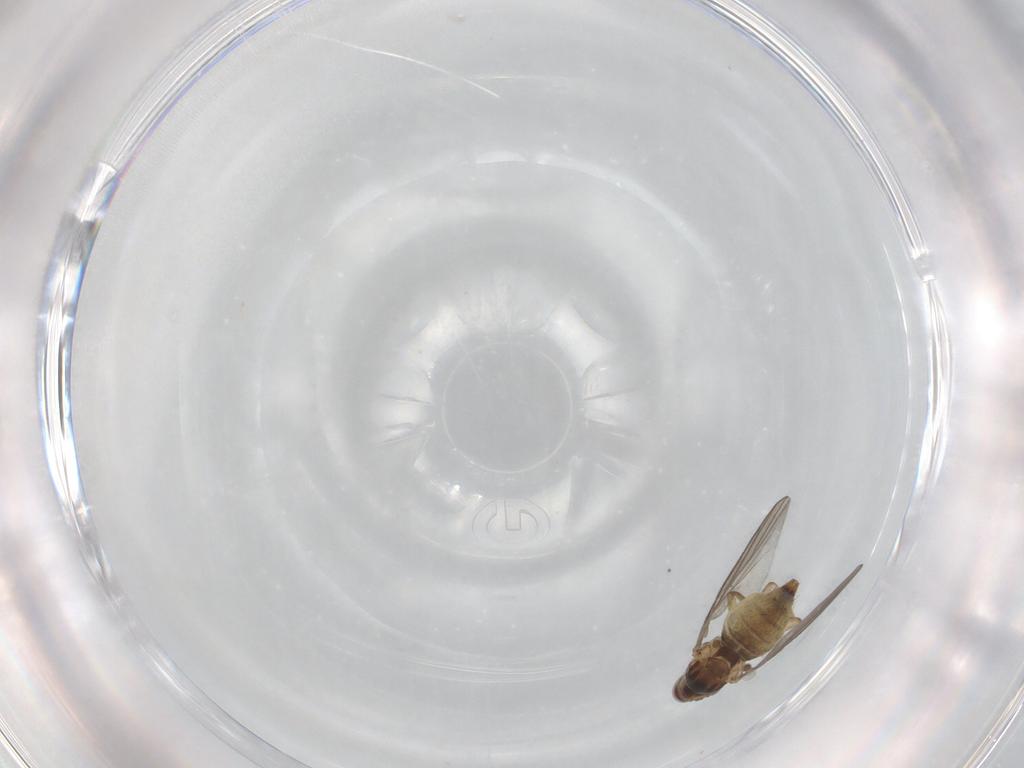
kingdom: Animalia
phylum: Arthropoda
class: Insecta
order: Diptera
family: Agromyzidae
